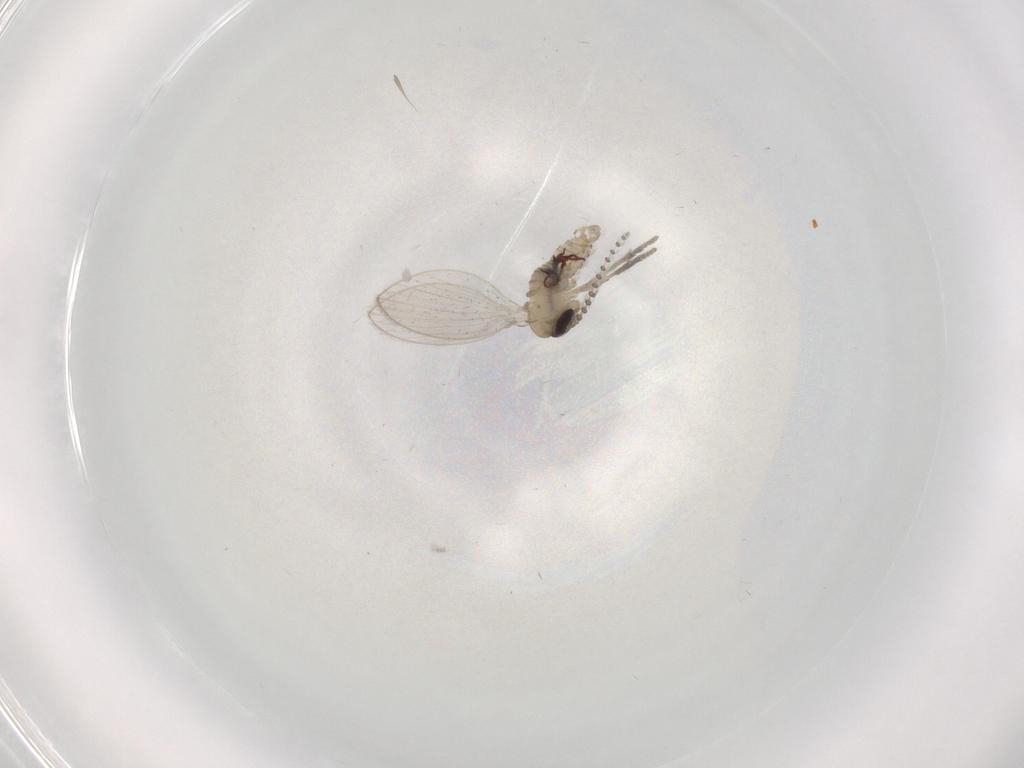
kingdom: Animalia
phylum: Arthropoda
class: Insecta
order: Diptera
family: Psychodidae
